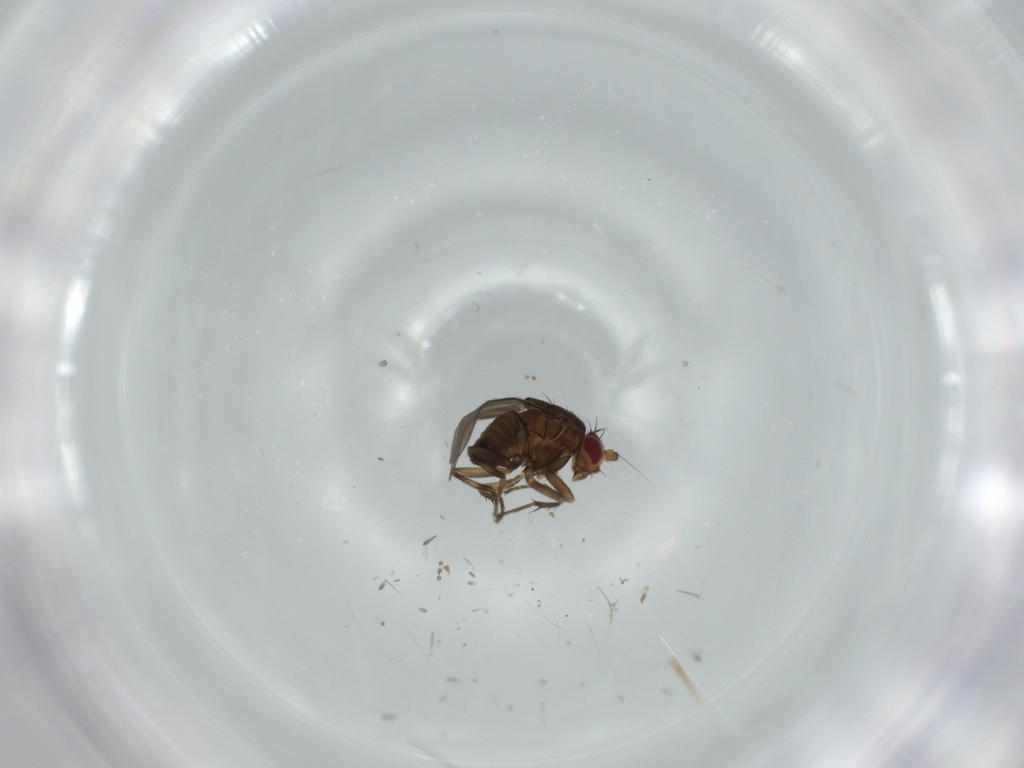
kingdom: Animalia
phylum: Arthropoda
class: Insecta
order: Diptera
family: Sphaeroceridae
